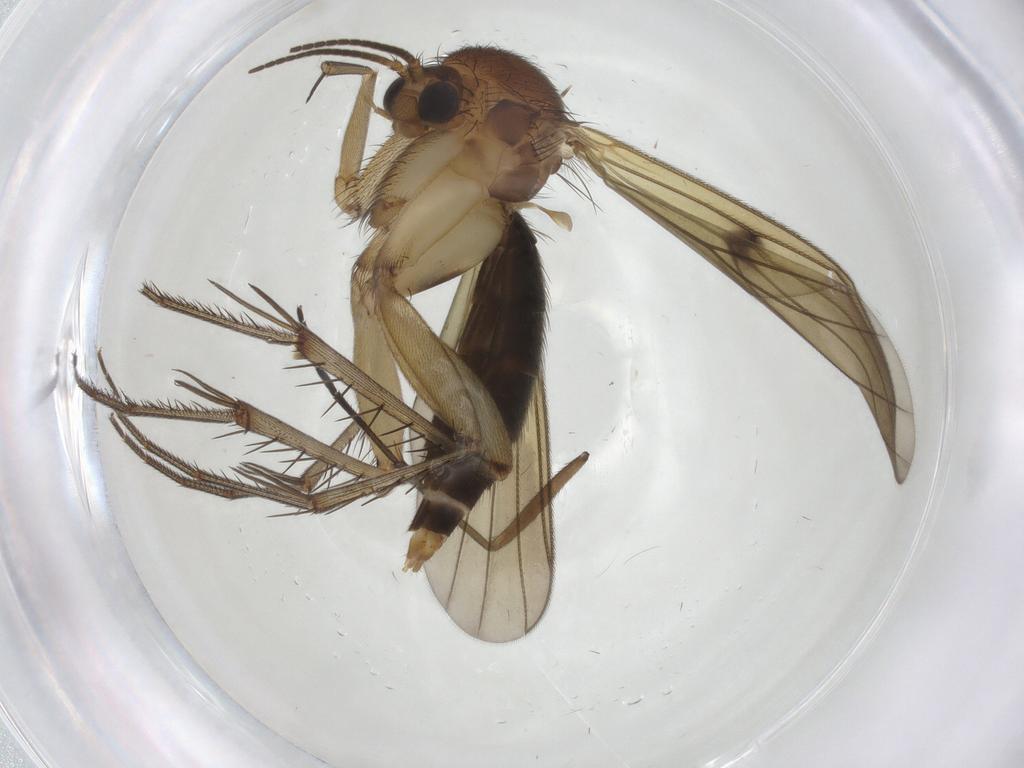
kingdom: Animalia
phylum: Arthropoda
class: Insecta
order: Diptera
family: Mycetophilidae
